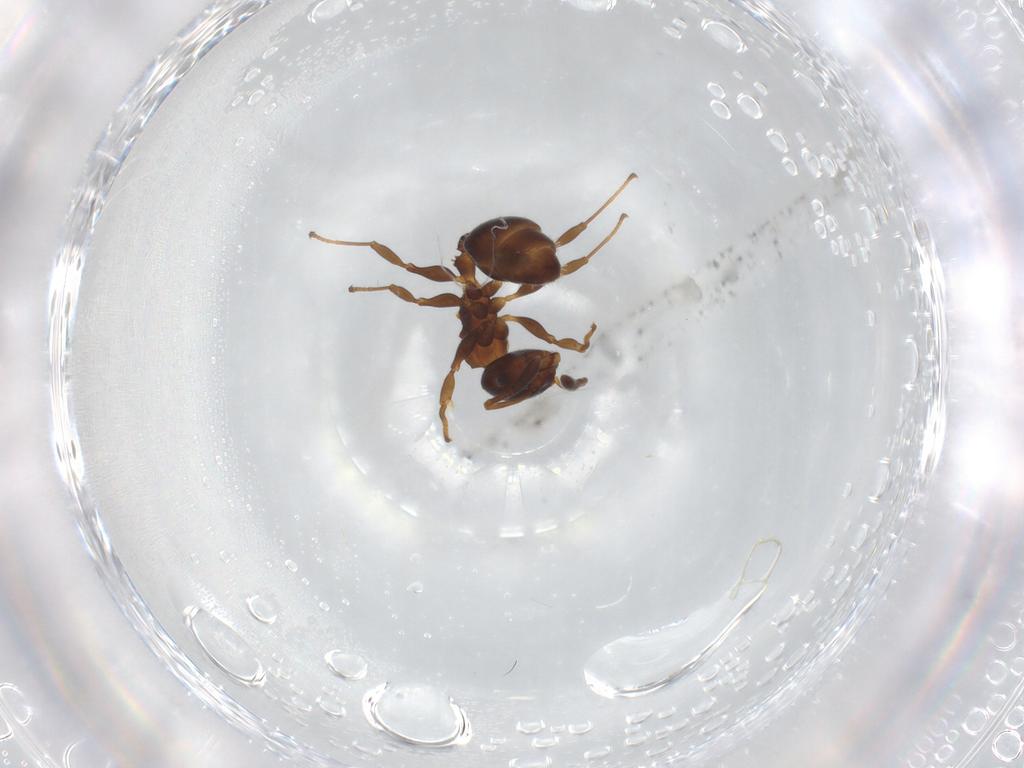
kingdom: Animalia
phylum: Arthropoda
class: Insecta
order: Hymenoptera
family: Formicidae
